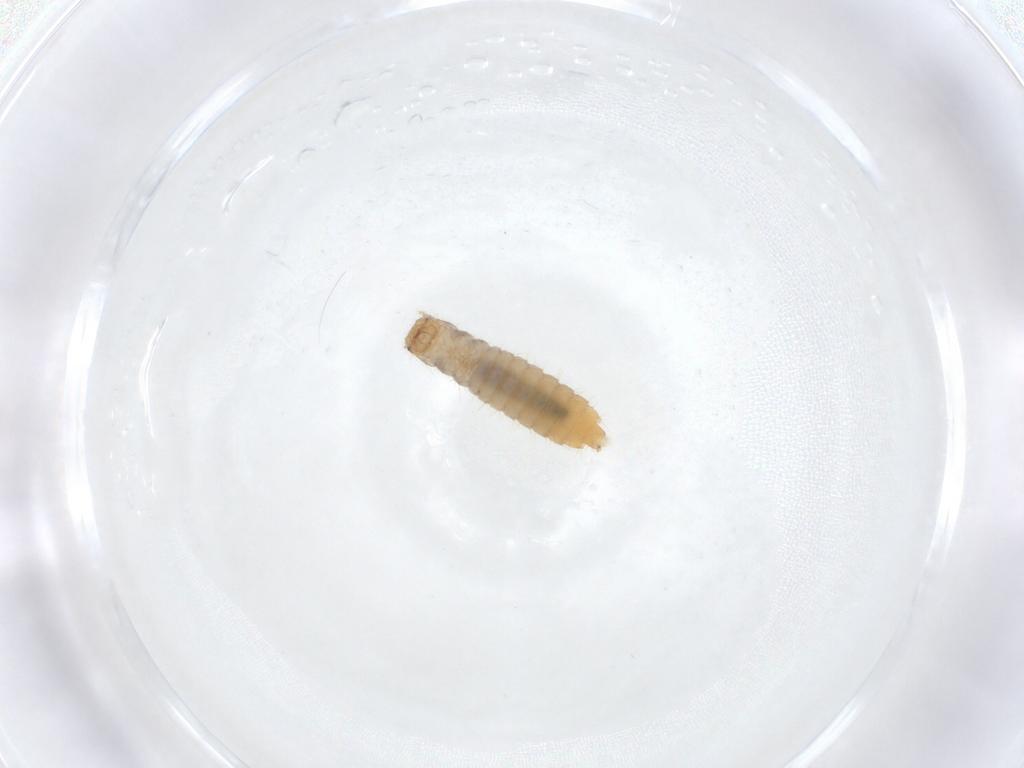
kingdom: Animalia
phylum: Arthropoda
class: Insecta
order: Diptera
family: Chironomidae
